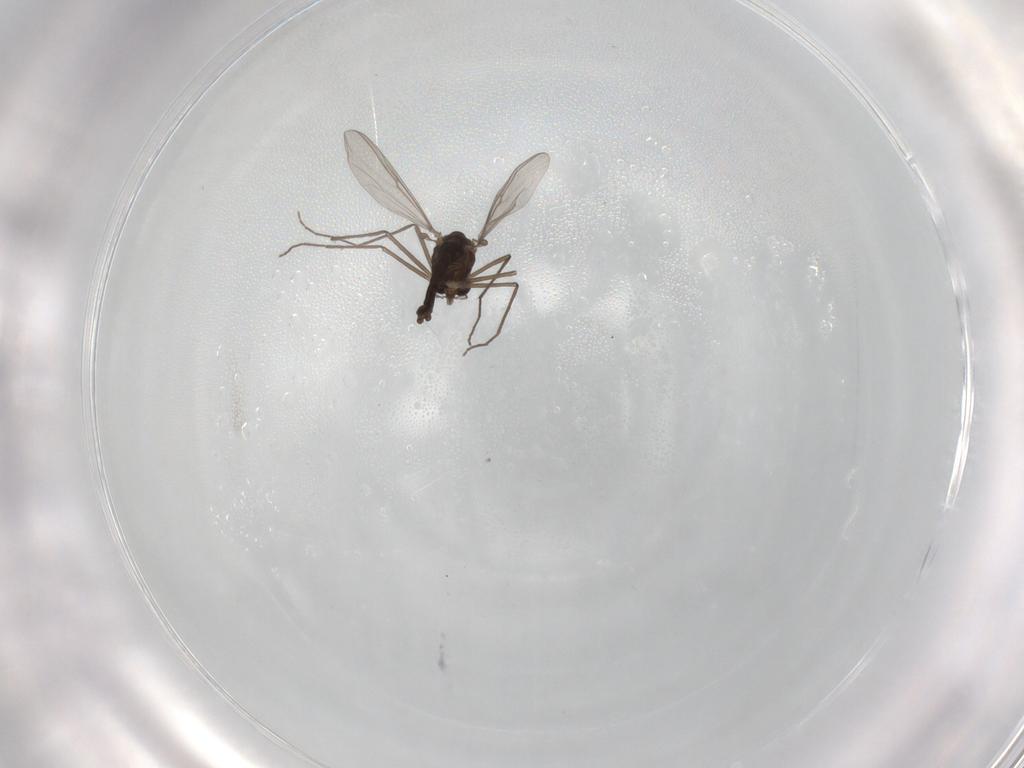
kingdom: Animalia
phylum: Arthropoda
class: Insecta
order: Diptera
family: Chironomidae
